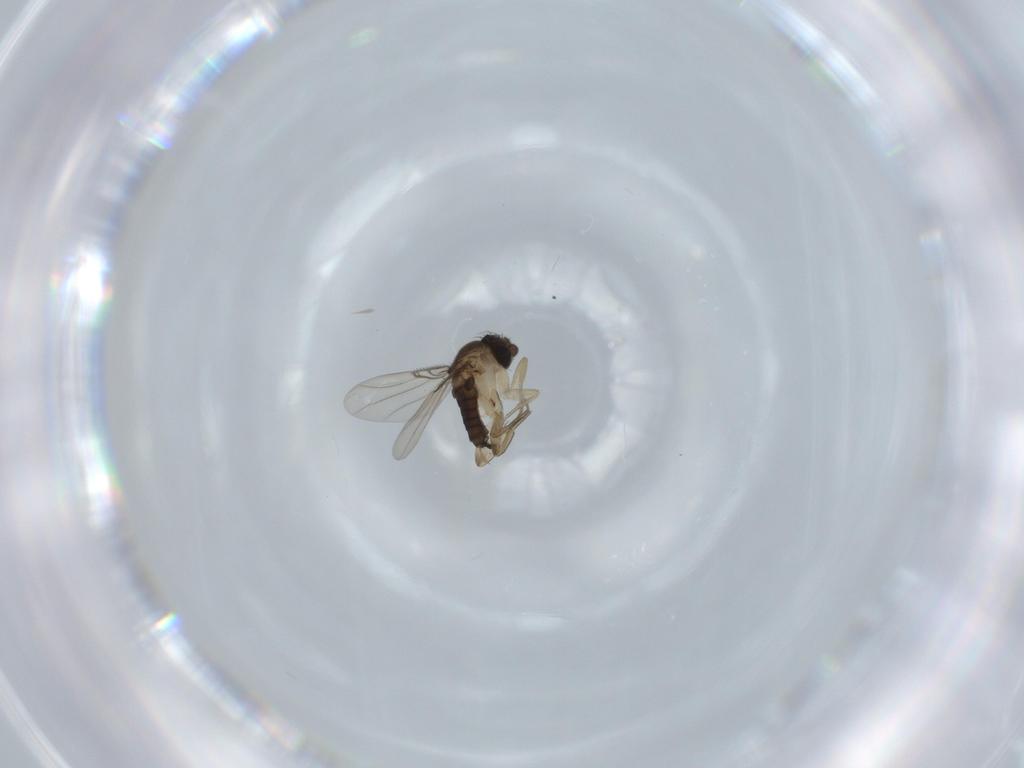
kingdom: Animalia
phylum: Arthropoda
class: Insecta
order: Diptera
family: Phoridae
